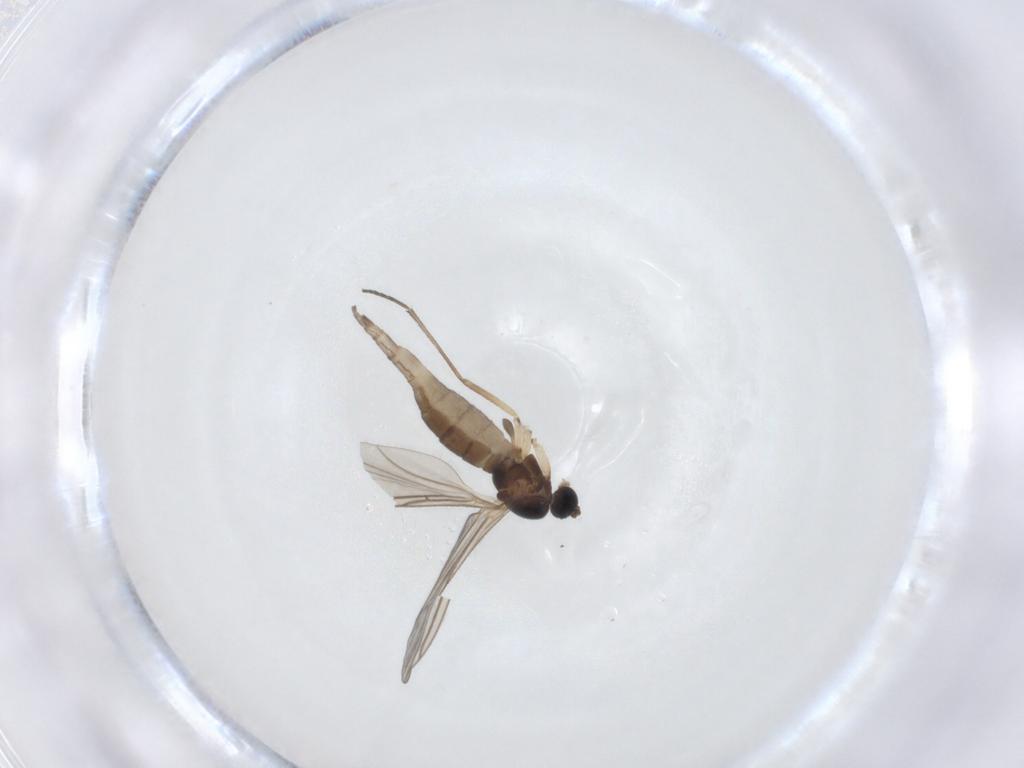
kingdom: Animalia
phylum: Arthropoda
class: Insecta
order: Diptera
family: Sciaridae
